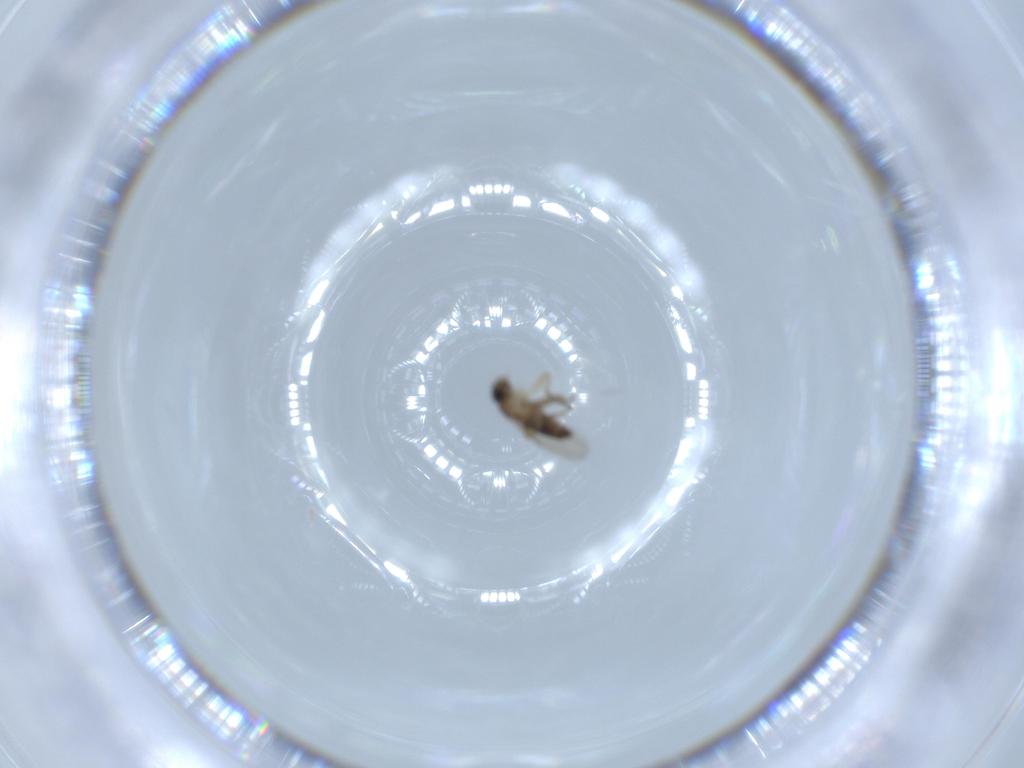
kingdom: Animalia
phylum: Arthropoda
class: Insecta
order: Diptera
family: Phoridae
